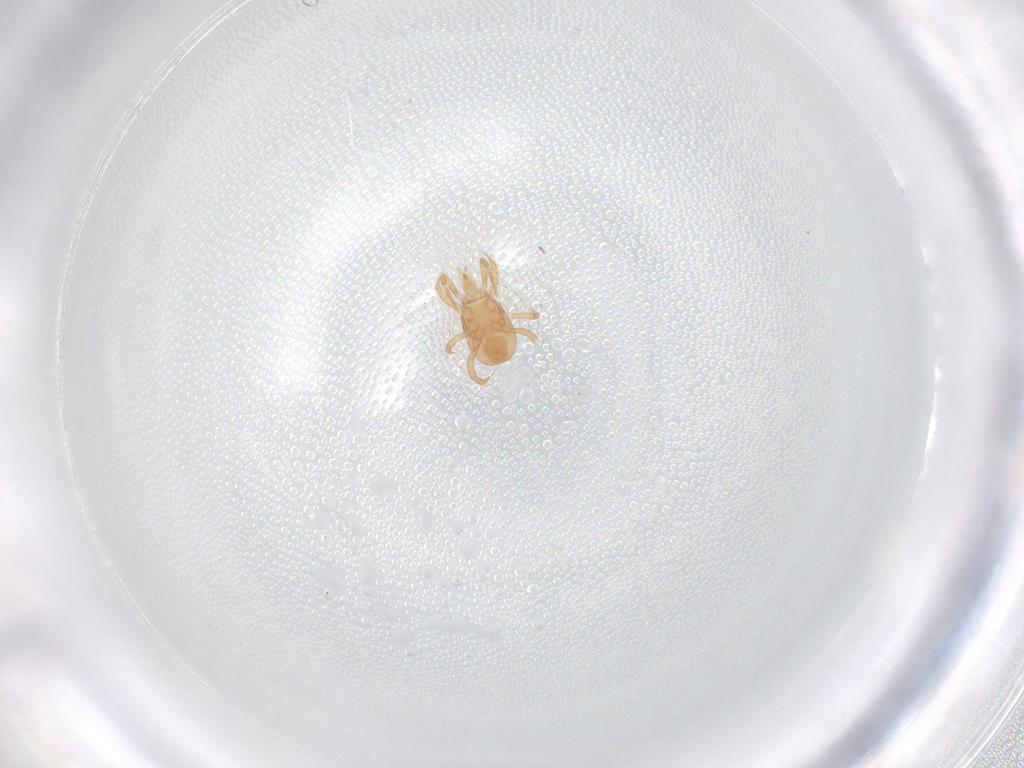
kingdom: Animalia
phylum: Arthropoda
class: Arachnida
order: Mesostigmata
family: Blattisociidae
